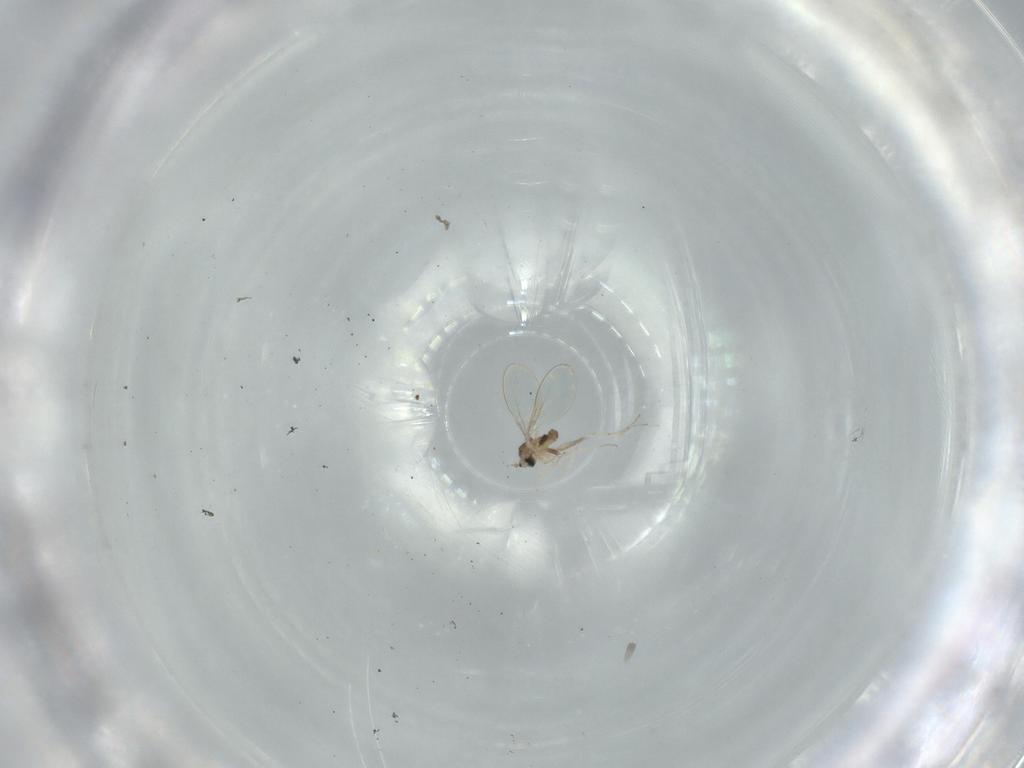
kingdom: Animalia
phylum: Arthropoda
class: Insecta
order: Diptera
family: Cecidomyiidae
